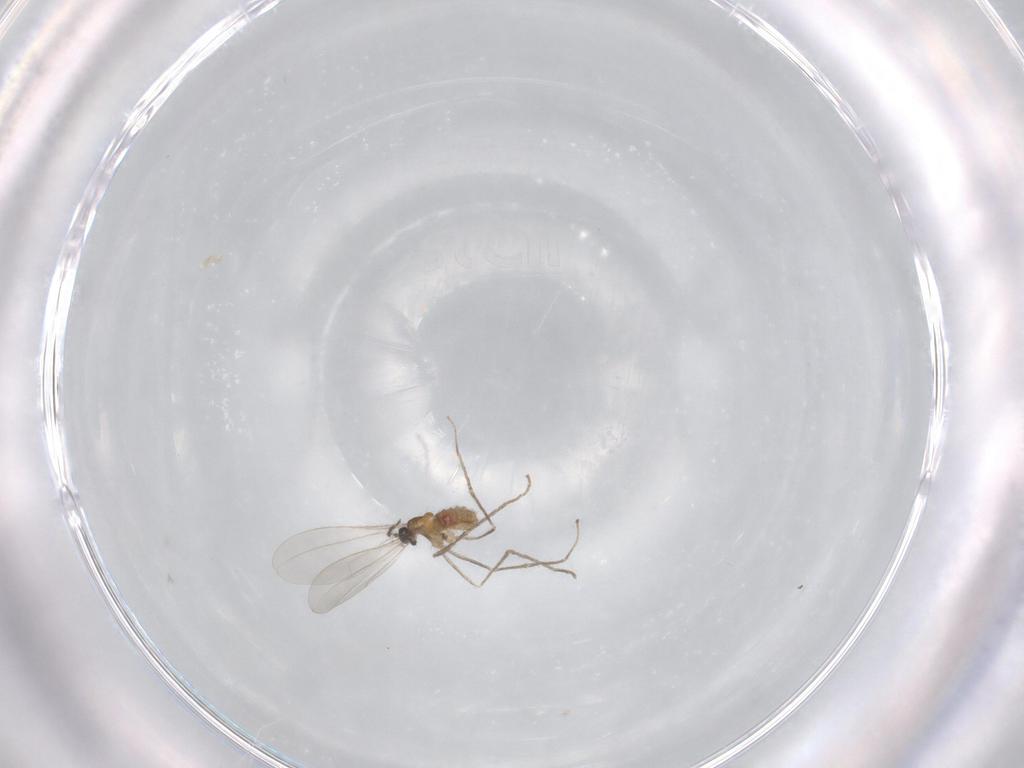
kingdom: Animalia
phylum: Arthropoda
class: Insecta
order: Diptera
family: Cecidomyiidae
